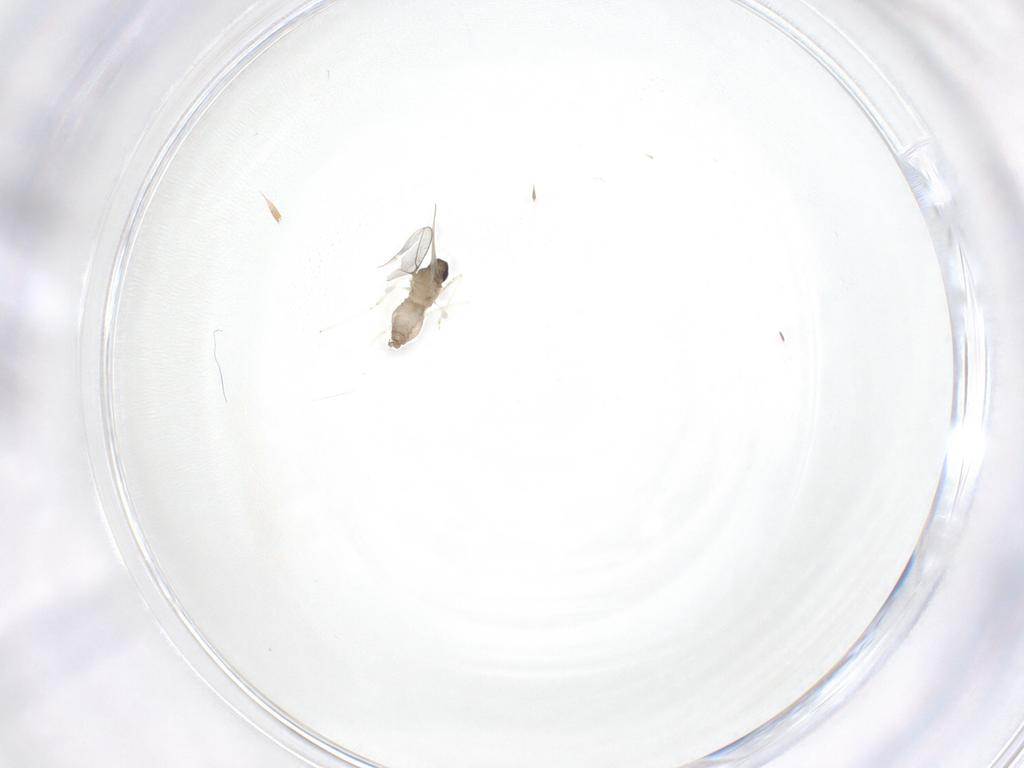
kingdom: Animalia
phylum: Arthropoda
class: Insecta
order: Diptera
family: Cecidomyiidae
